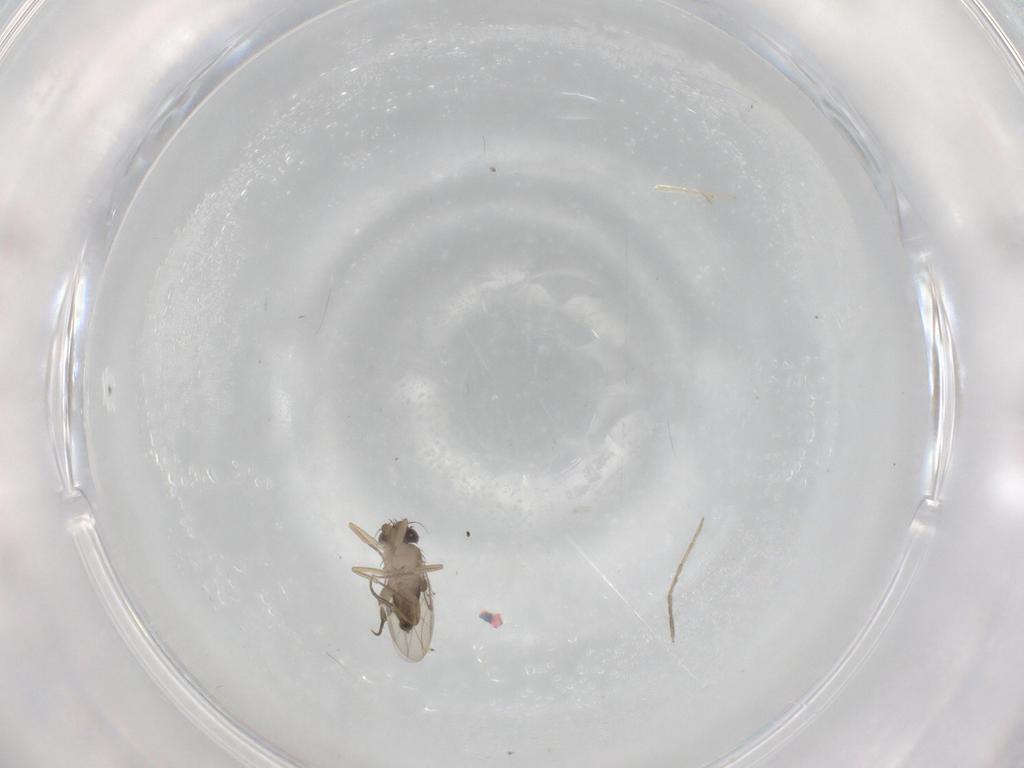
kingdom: Animalia
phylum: Arthropoda
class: Insecta
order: Diptera
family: Phoridae
